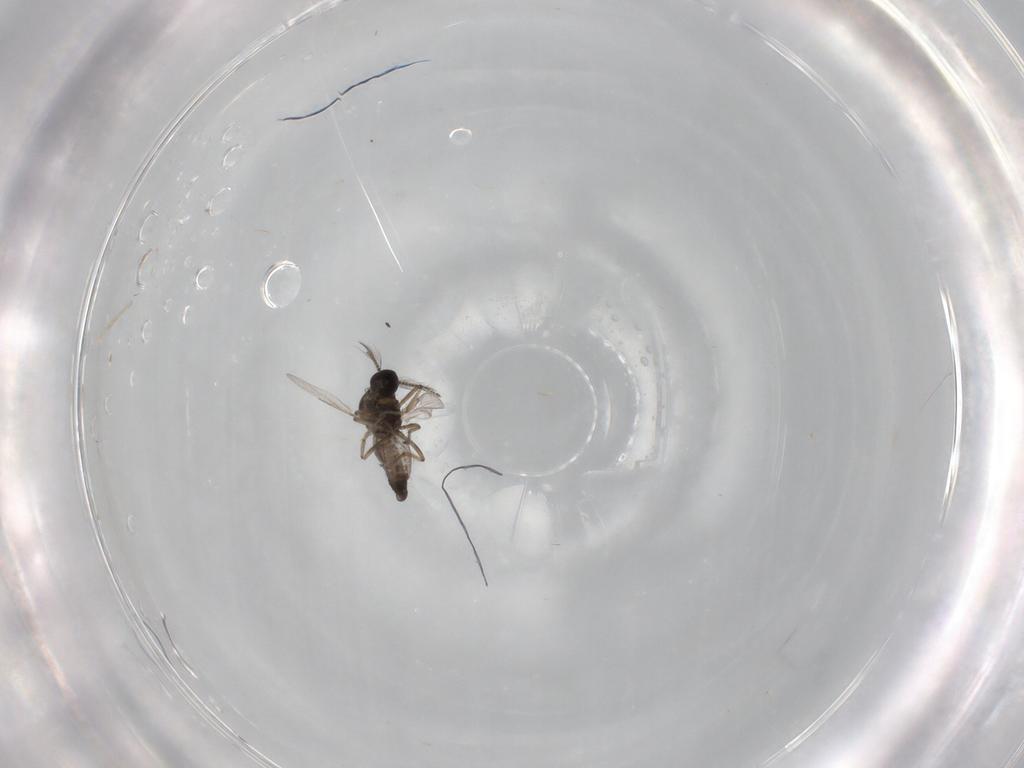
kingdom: Animalia
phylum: Arthropoda
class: Insecta
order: Diptera
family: Ceratopogonidae
